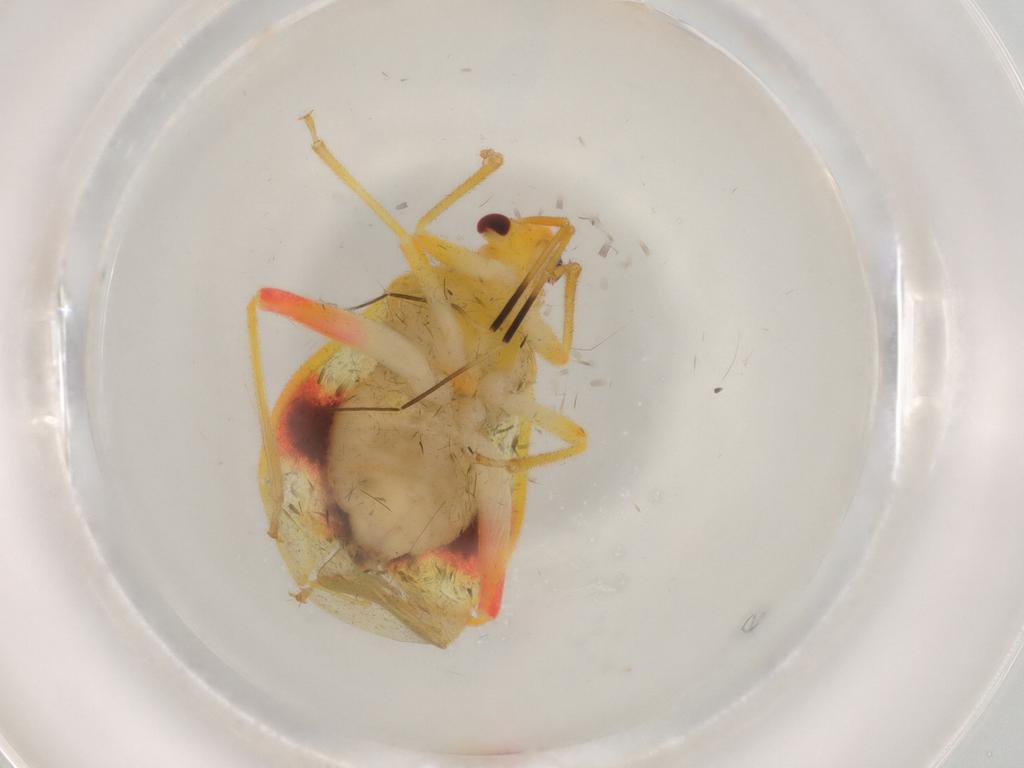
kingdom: Animalia
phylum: Arthropoda
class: Insecta
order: Hemiptera
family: Miridae
